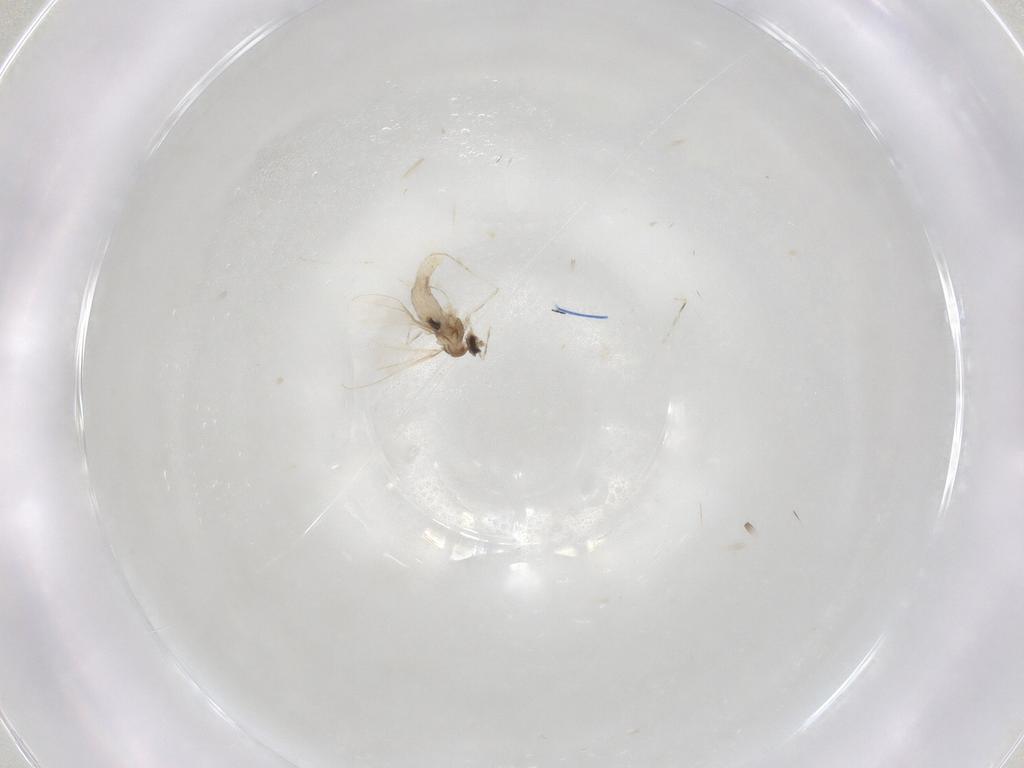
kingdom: Animalia
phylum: Arthropoda
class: Insecta
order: Diptera
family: Cecidomyiidae
